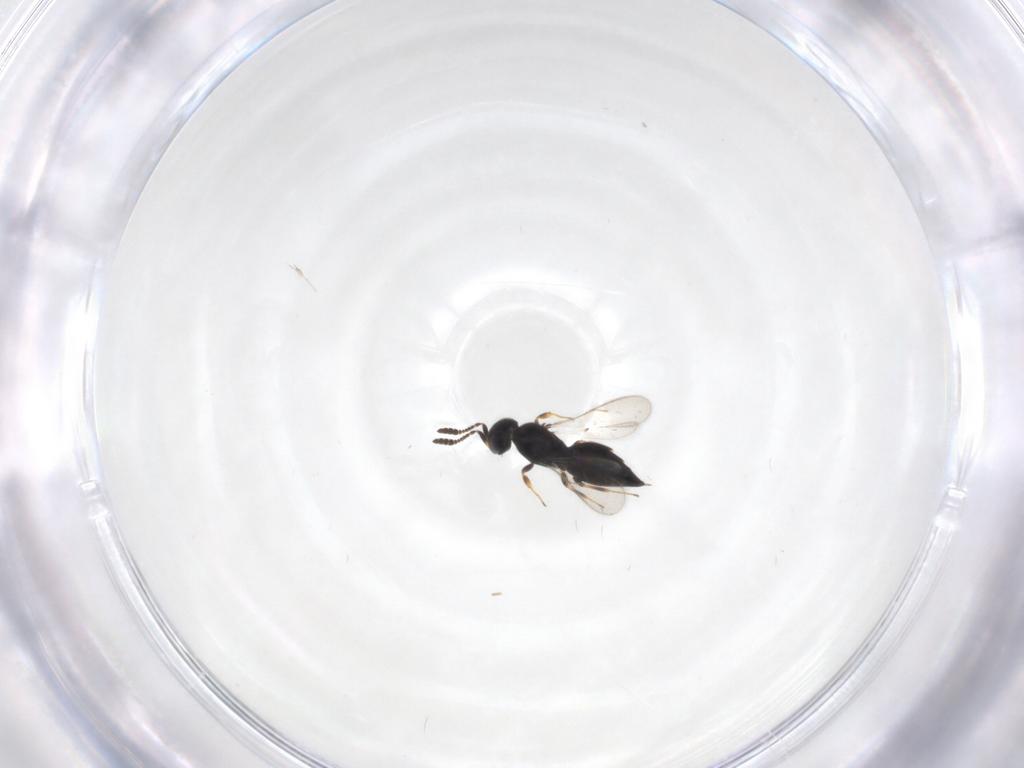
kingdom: Animalia
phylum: Arthropoda
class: Insecta
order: Hymenoptera
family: Scelionidae
